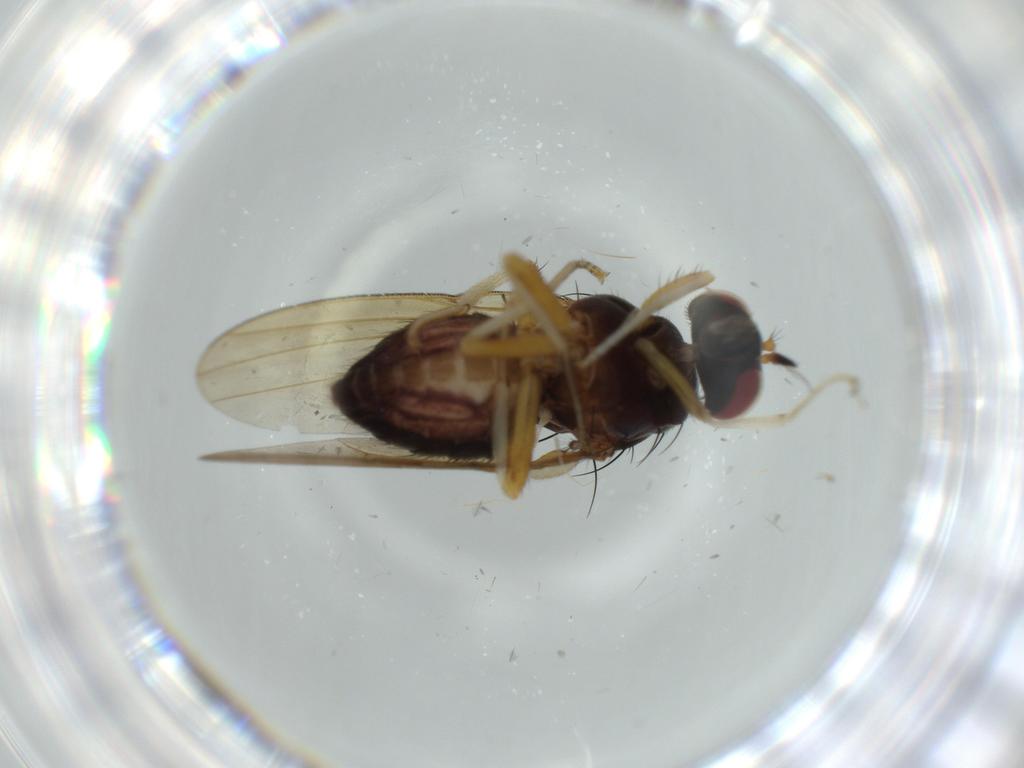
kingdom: Animalia
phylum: Arthropoda
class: Insecta
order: Diptera
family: Chironomidae
